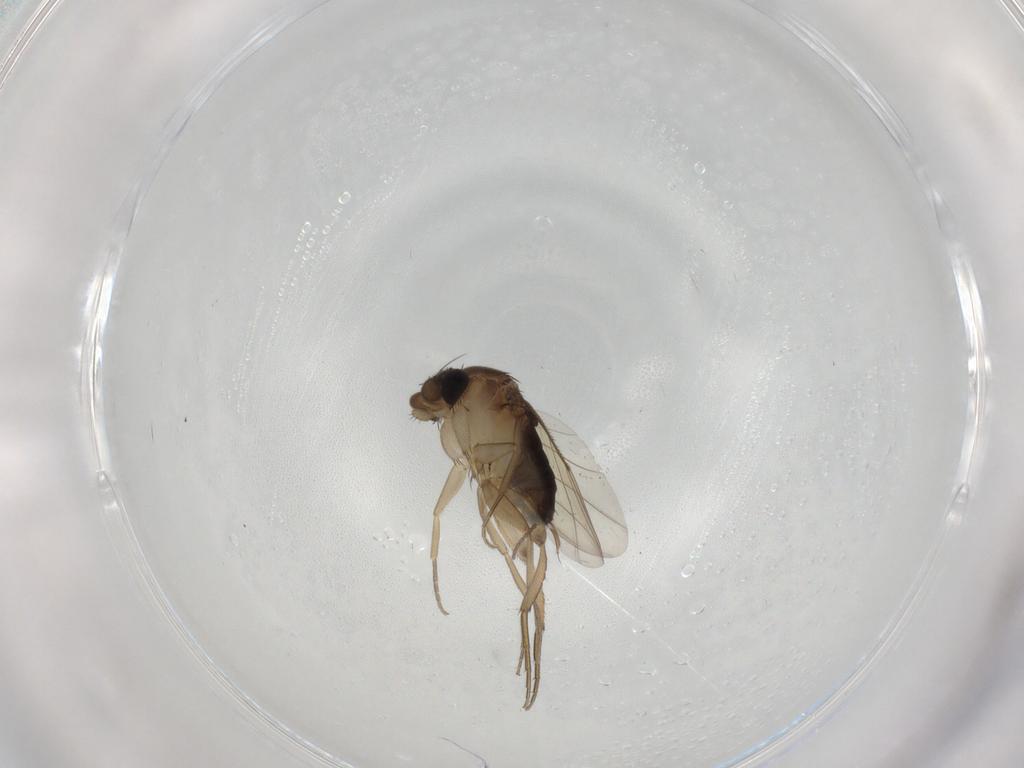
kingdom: Animalia
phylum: Arthropoda
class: Insecta
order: Diptera
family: Phoridae
